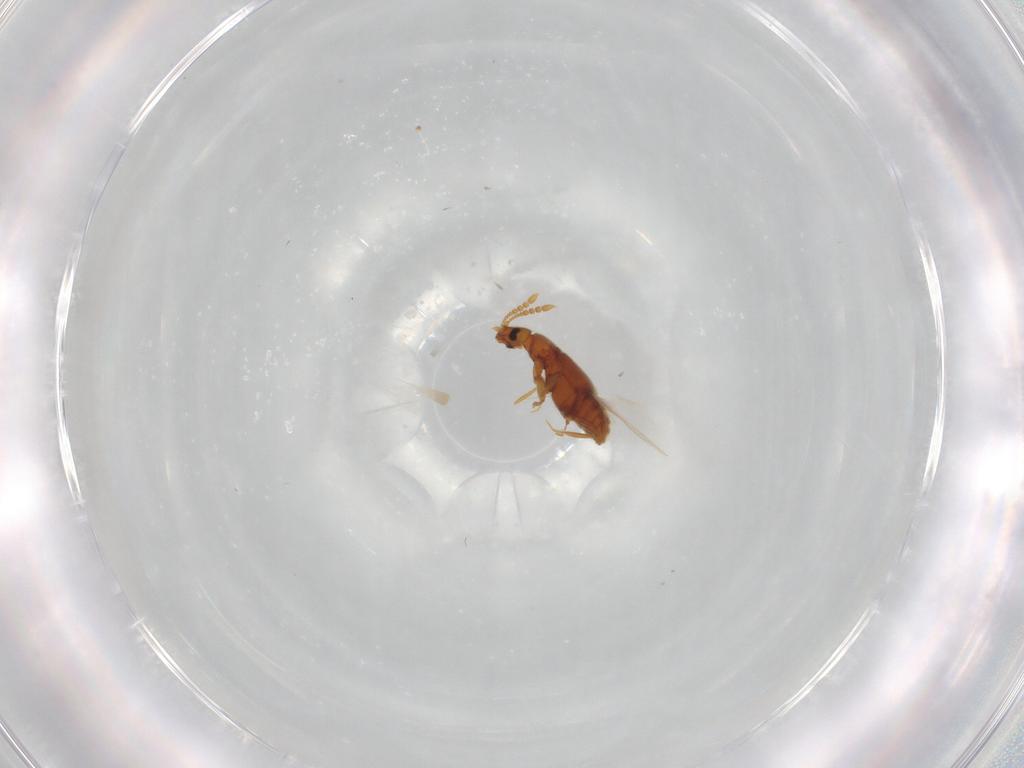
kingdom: Animalia
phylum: Arthropoda
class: Insecta
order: Coleoptera
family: Staphylinidae
